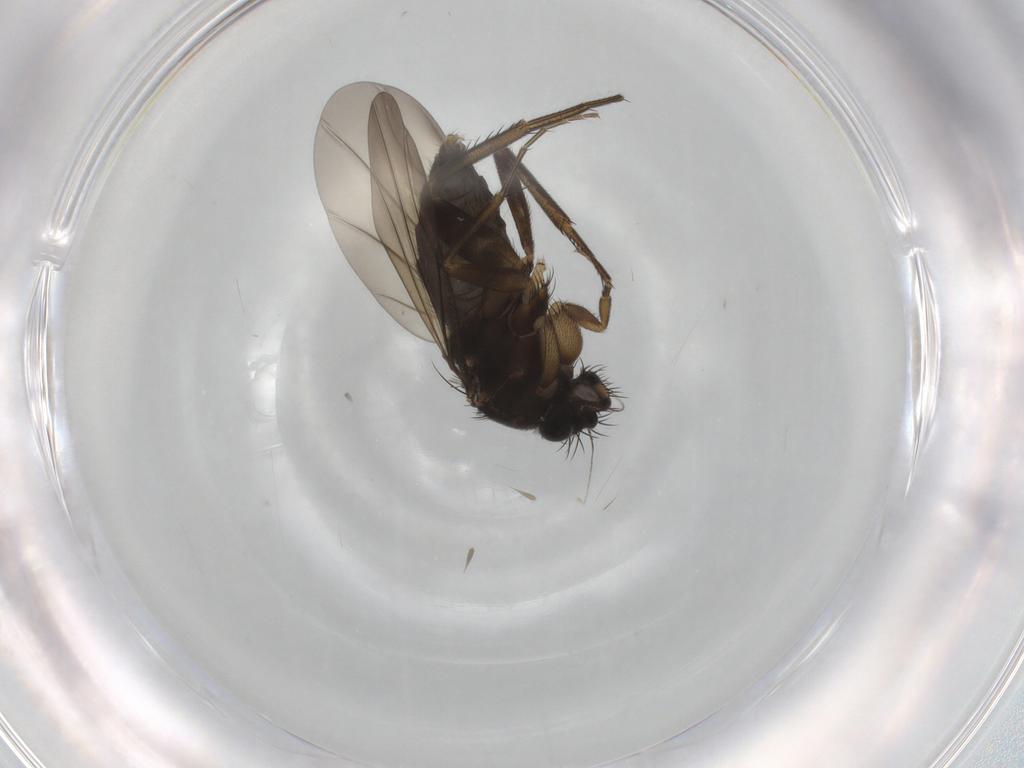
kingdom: Animalia
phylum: Arthropoda
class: Insecta
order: Diptera
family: Phoridae
